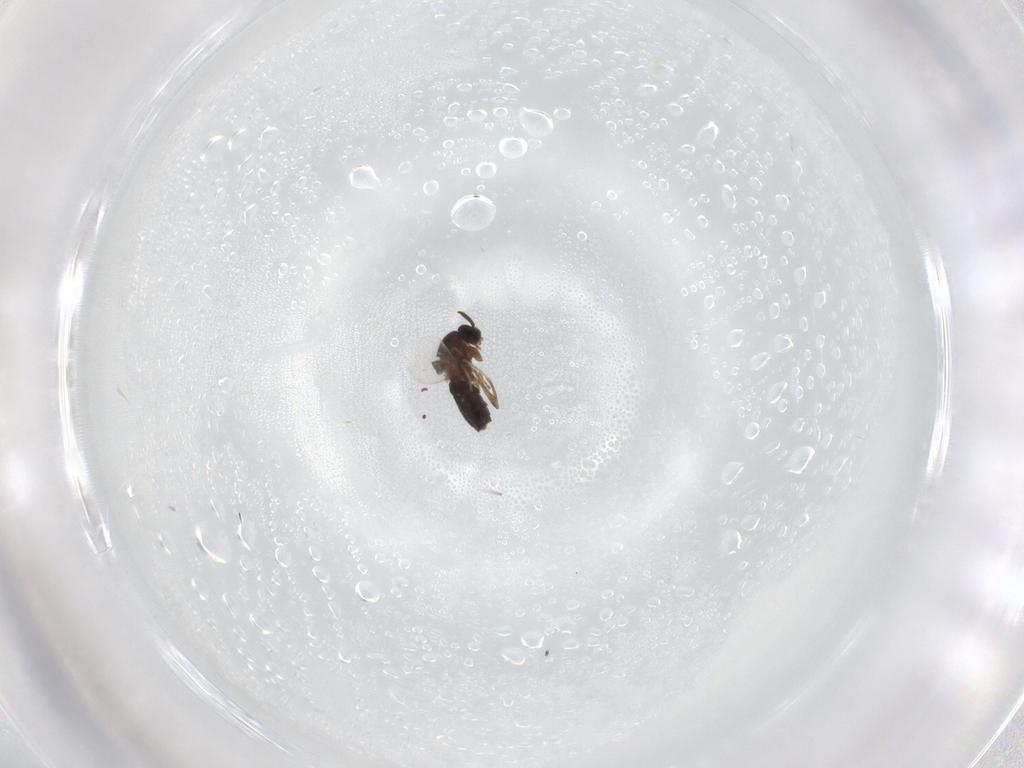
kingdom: Animalia
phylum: Arthropoda
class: Insecta
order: Diptera
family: Scatopsidae
